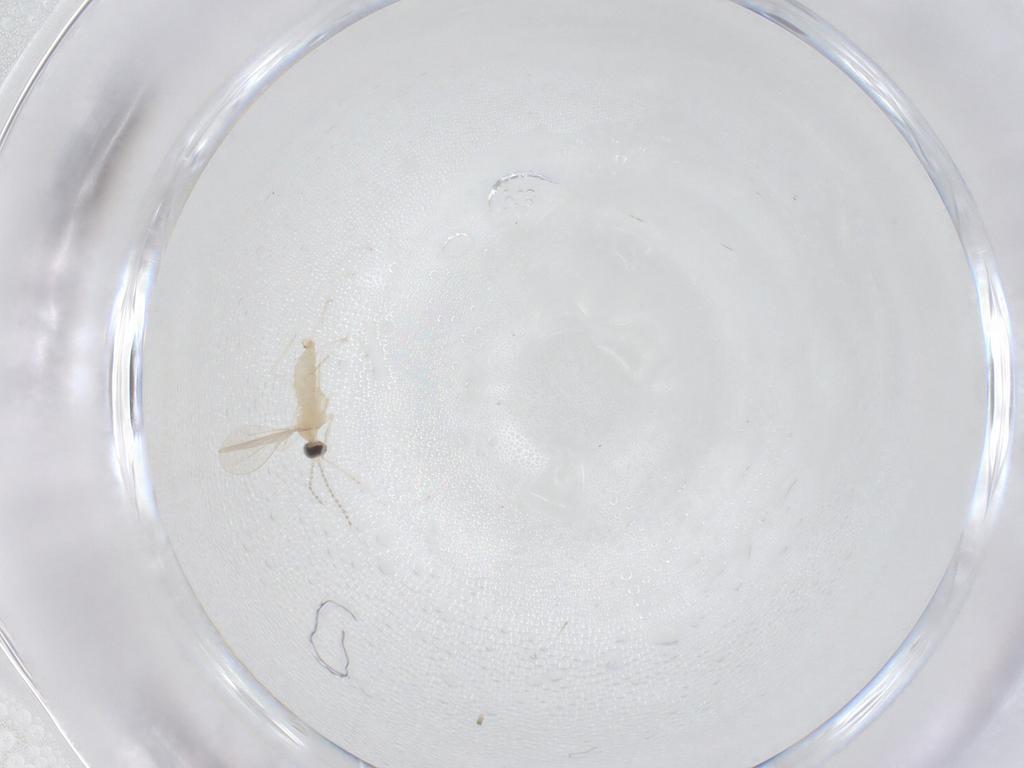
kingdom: Animalia
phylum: Arthropoda
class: Insecta
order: Diptera
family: Cecidomyiidae
